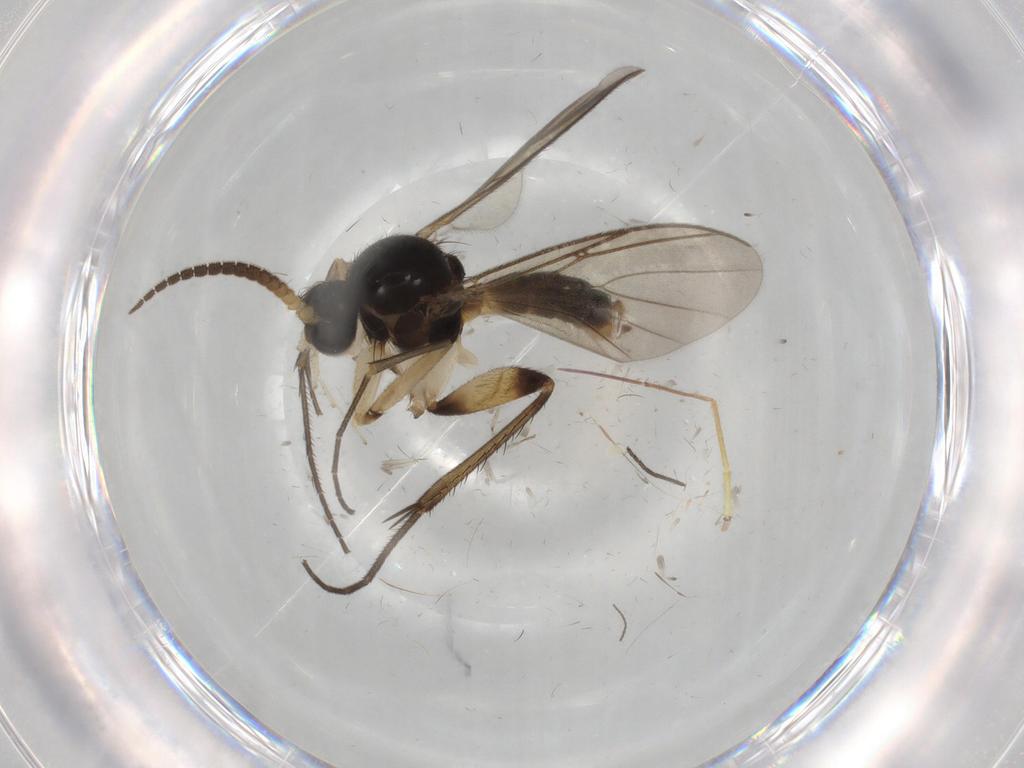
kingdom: Animalia
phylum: Arthropoda
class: Insecta
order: Diptera
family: Mycetophilidae
